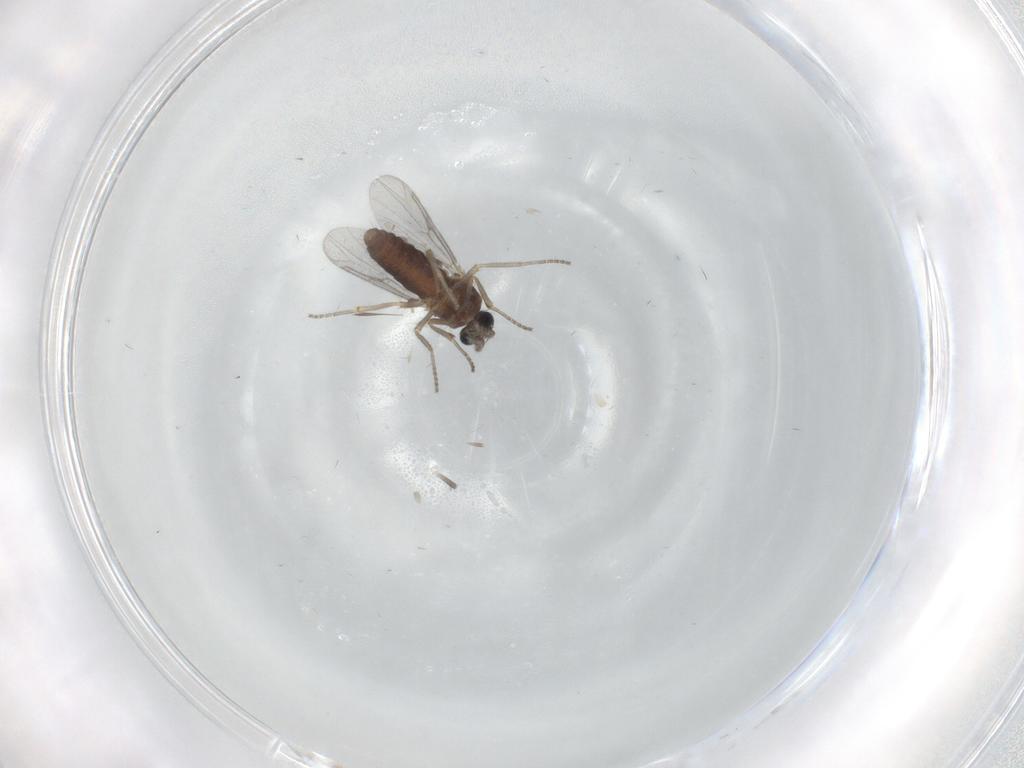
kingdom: Animalia
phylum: Arthropoda
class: Insecta
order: Diptera
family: Ceratopogonidae
